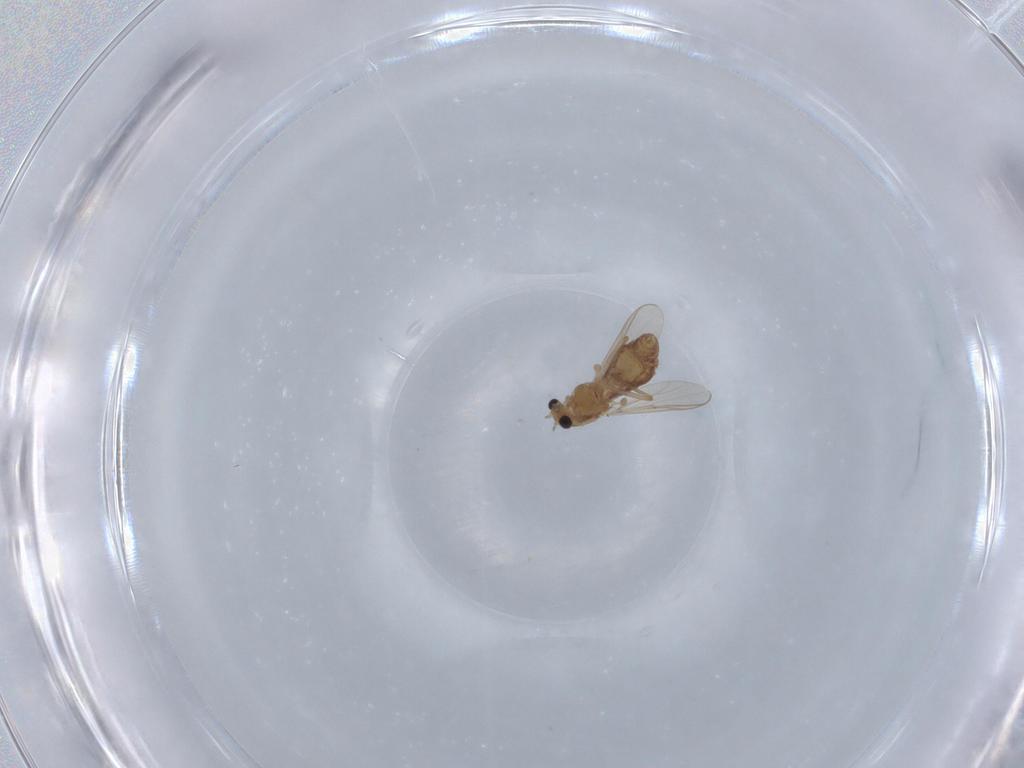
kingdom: Animalia
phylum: Arthropoda
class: Insecta
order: Diptera
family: Chironomidae
